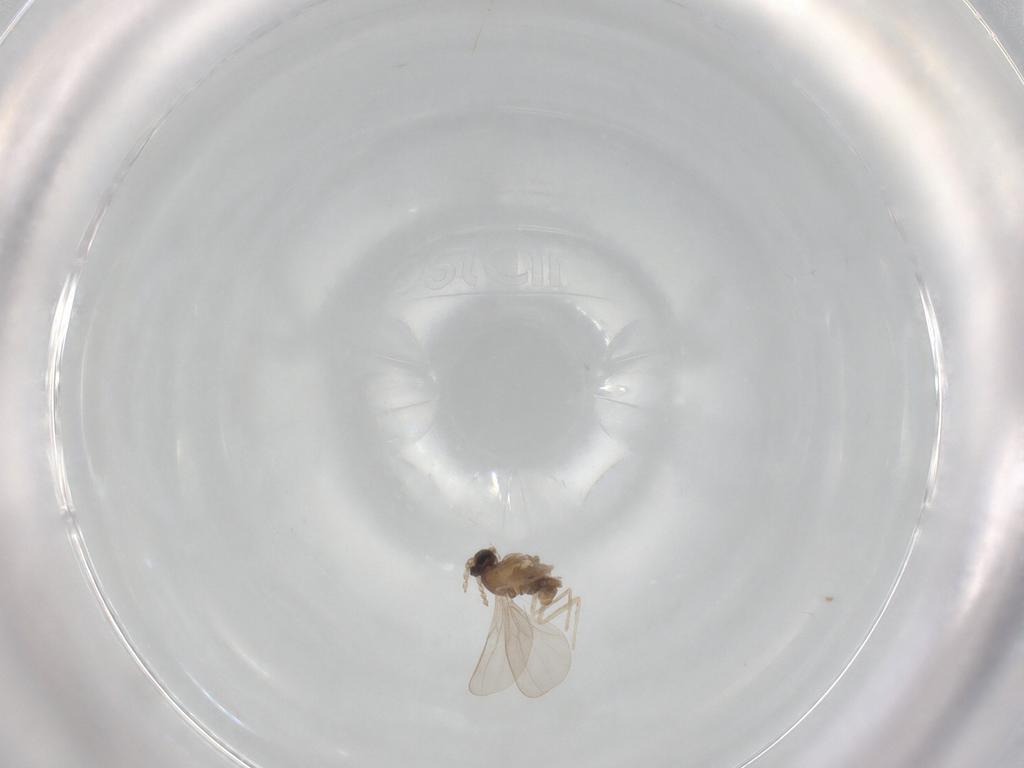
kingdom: Animalia
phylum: Arthropoda
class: Insecta
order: Diptera
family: Cecidomyiidae
